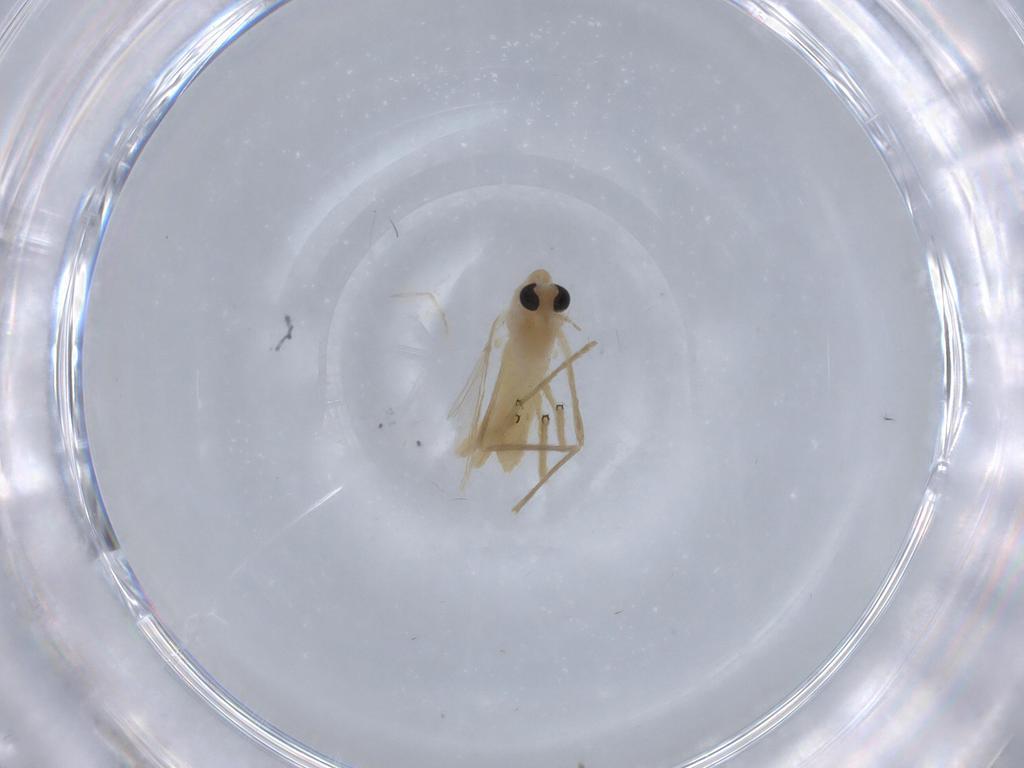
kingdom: Animalia
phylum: Arthropoda
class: Insecta
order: Diptera
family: Chironomidae
